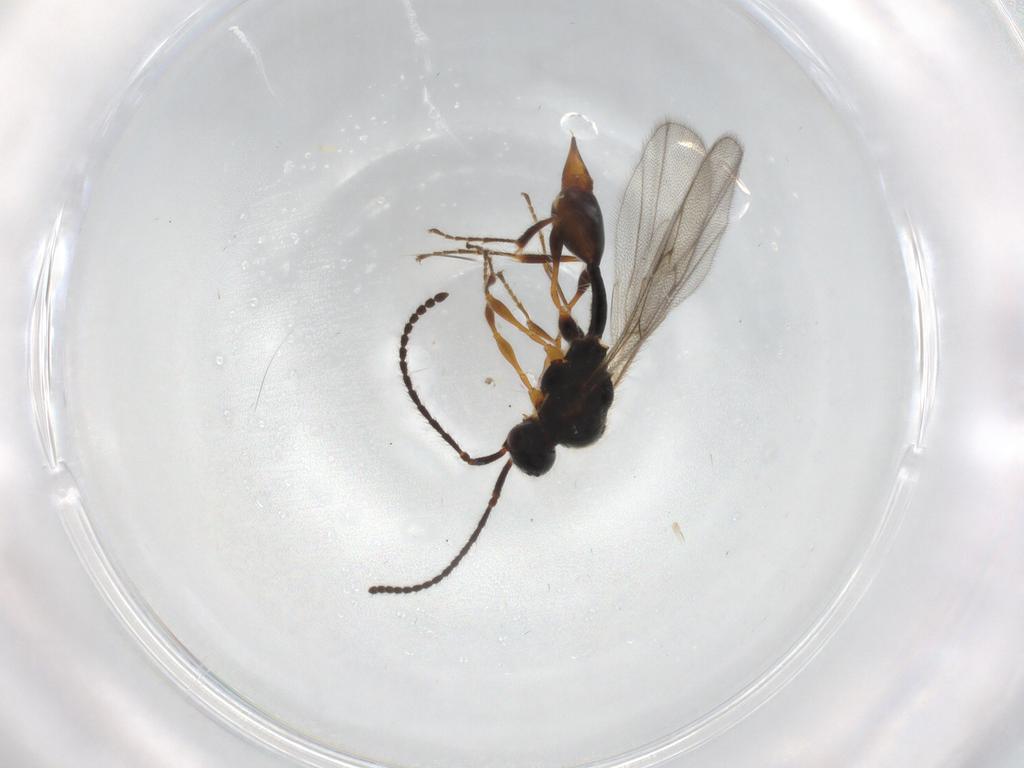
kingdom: Animalia
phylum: Arthropoda
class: Insecta
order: Hymenoptera
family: Diapriidae
